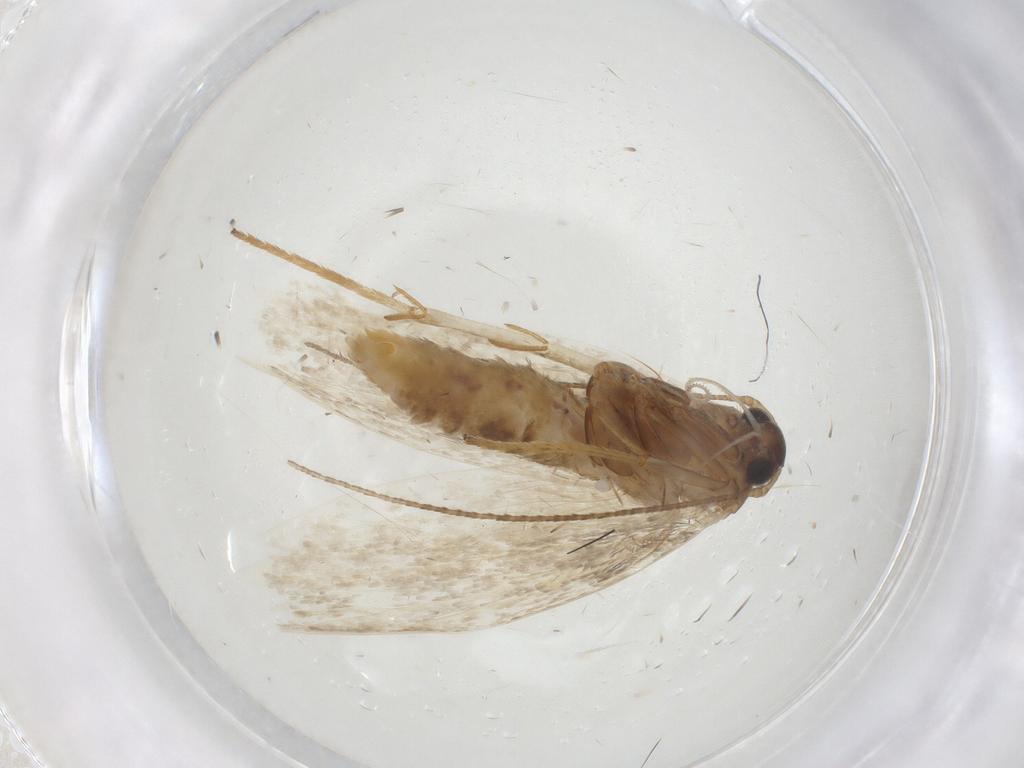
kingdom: Animalia
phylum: Arthropoda
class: Insecta
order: Lepidoptera
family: Erebidae
